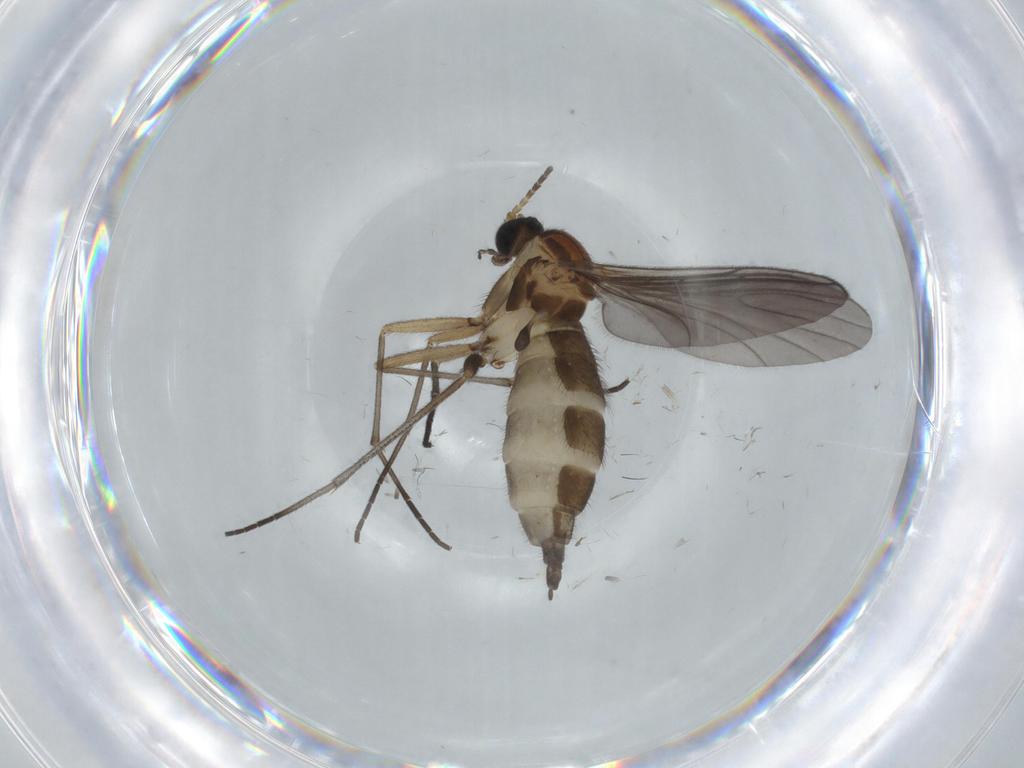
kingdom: Animalia
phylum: Arthropoda
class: Insecta
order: Diptera
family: Sciaridae
